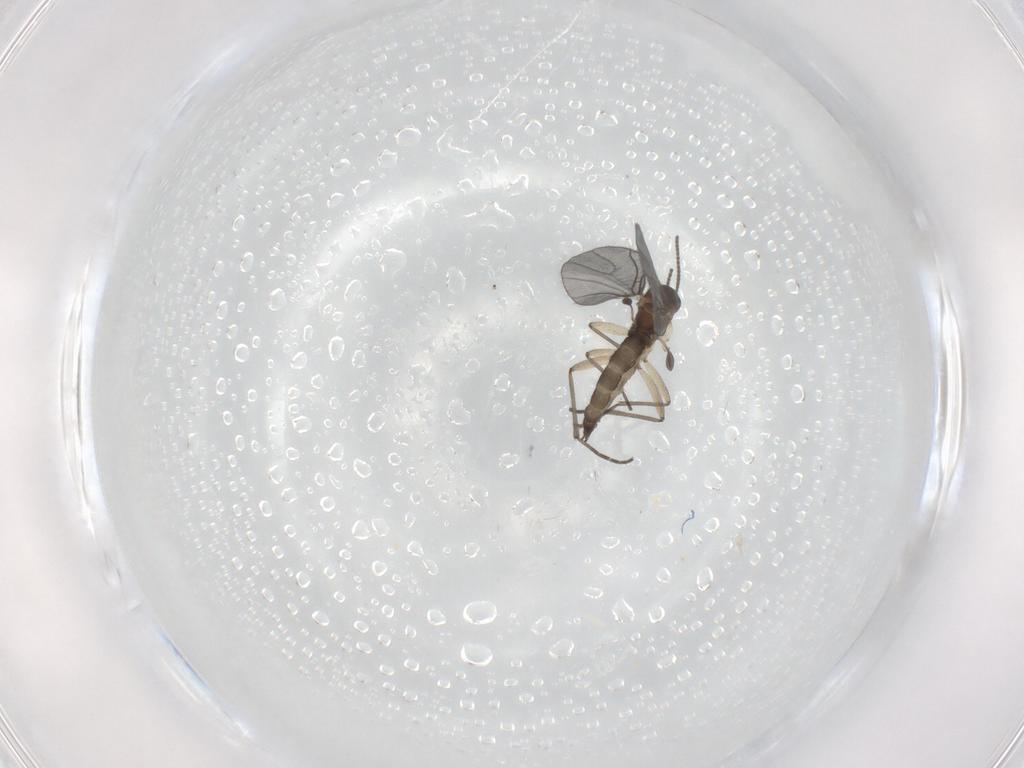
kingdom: Animalia
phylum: Arthropoda
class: Insecta
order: Diptera
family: Sciaridae
